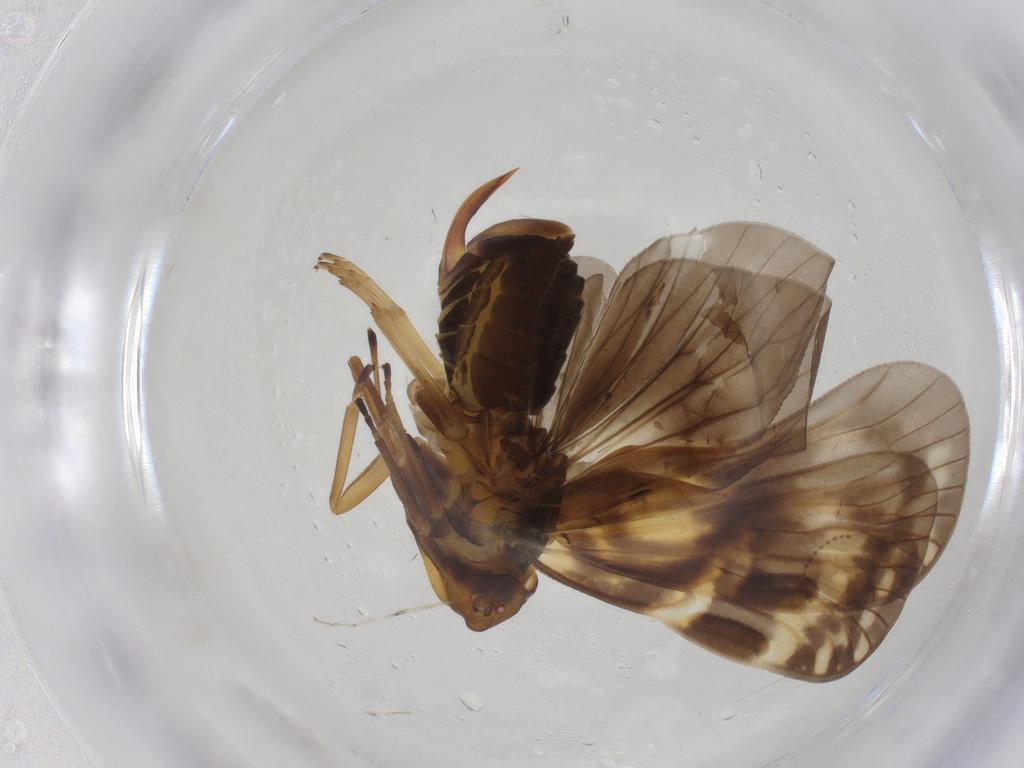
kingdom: Animalia
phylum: Arthropoda
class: Insecta
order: Hemiptera
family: Cixiidae
